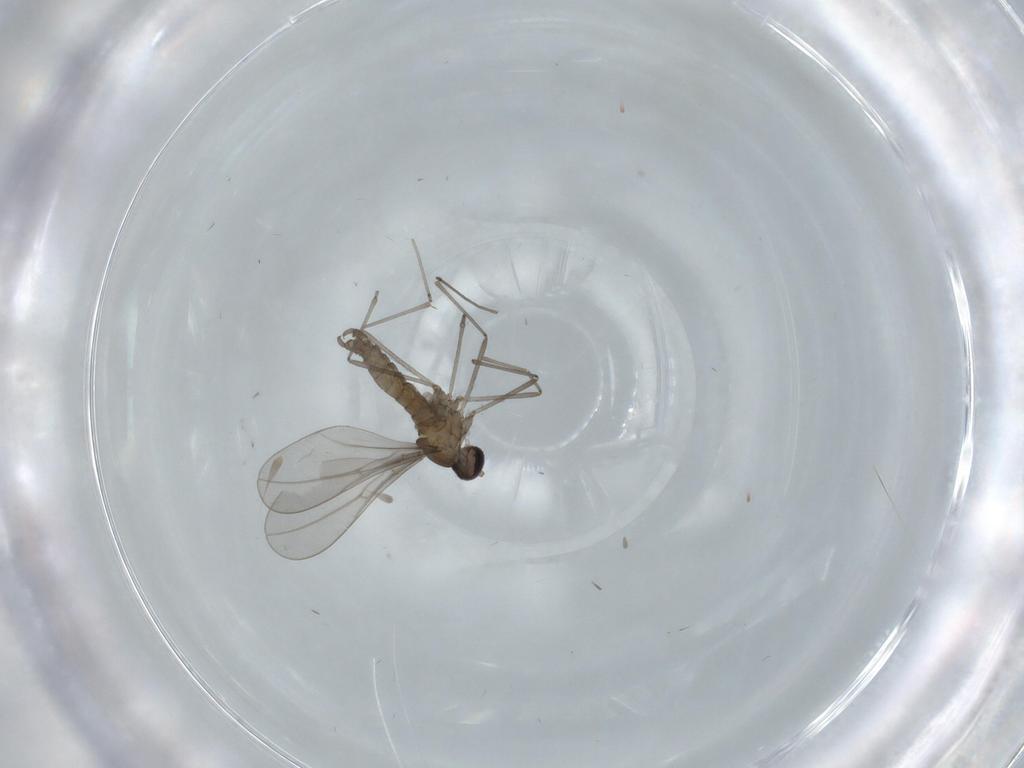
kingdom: Animalia
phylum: Arthropoda
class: Insecta
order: Diptera
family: Cecidomyiidae
